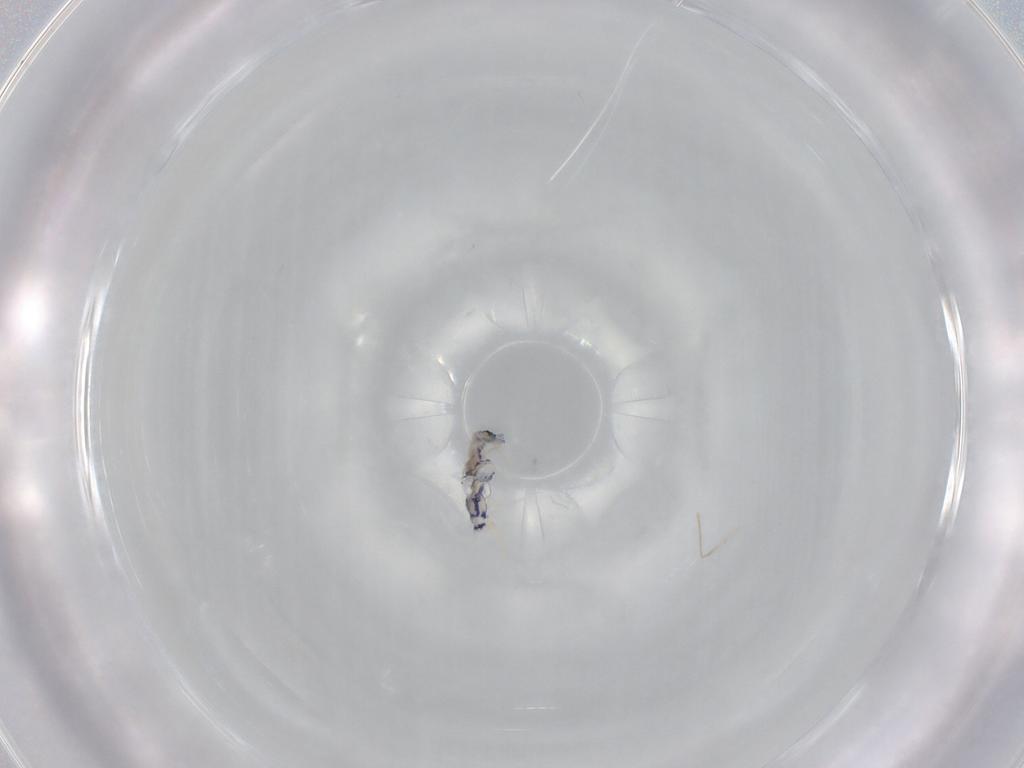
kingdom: Animalia
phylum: Arthropoda
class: Collembola
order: Entomobryomorpha
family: Entomobryidae
